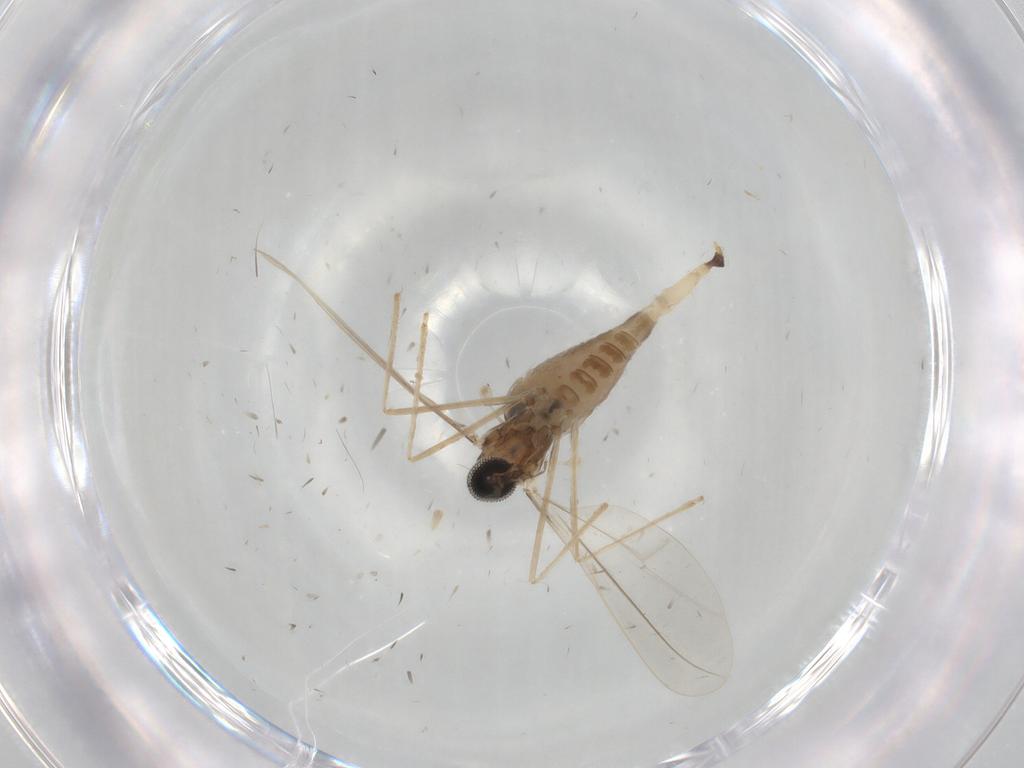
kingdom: Animalia
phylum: Arthropoda
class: Insecta
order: Diptera
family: Cecidomyiidae
